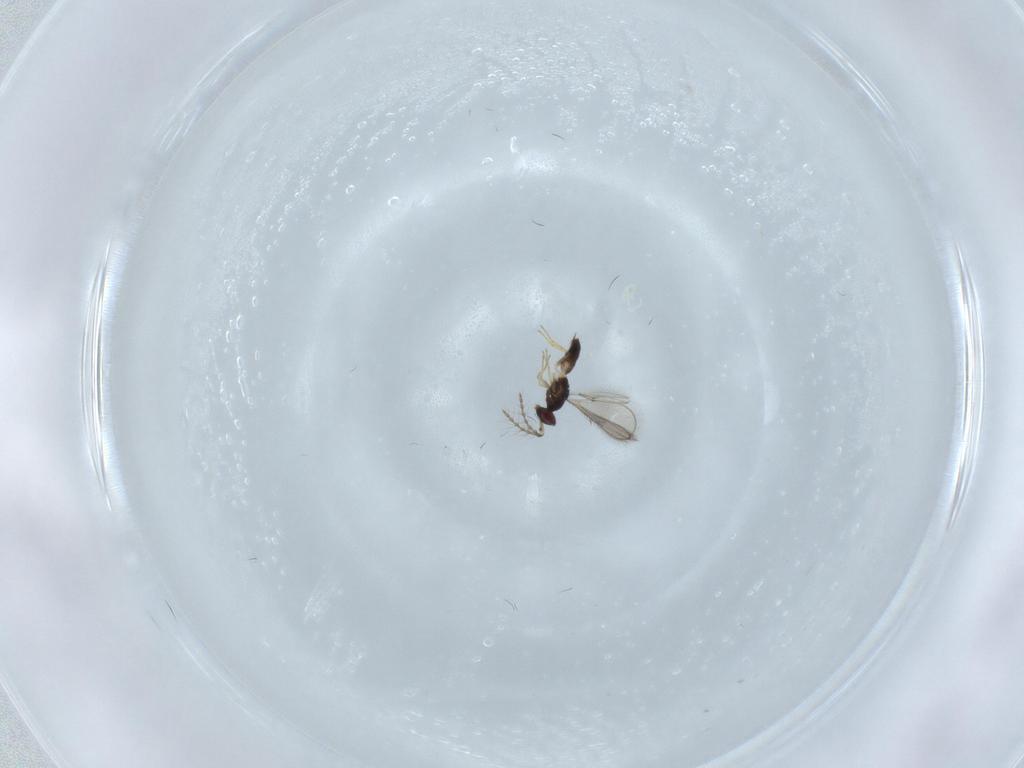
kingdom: Animalia
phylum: Arthropoda
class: Insecta
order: Hymenoptera
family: Eulophidae
